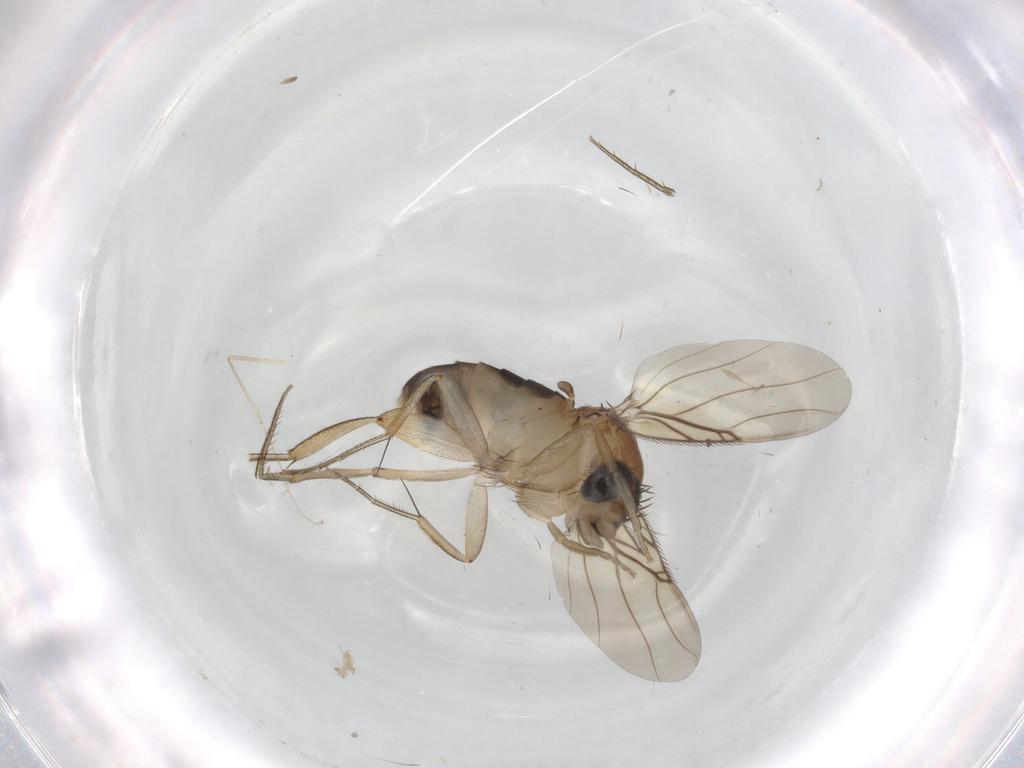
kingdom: Animalia
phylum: Arthropoda
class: Insecta
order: Diptera
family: Phoridae
